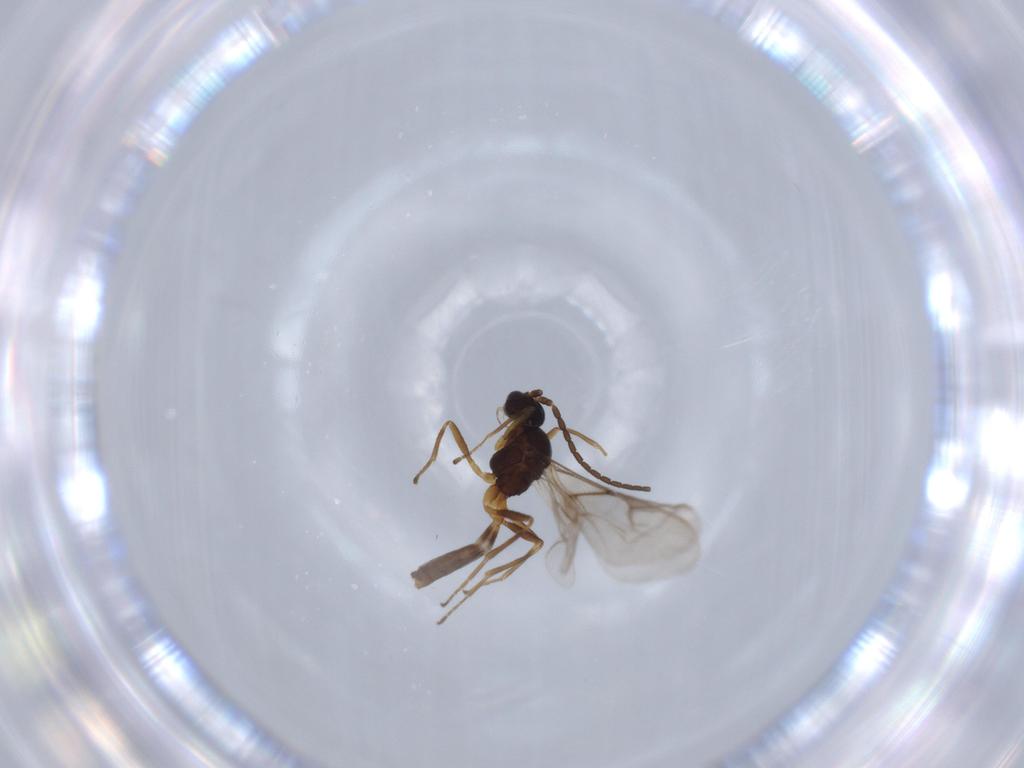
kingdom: Animalia
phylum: Arthropoda
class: Insecta
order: Hymenoptera
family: Braconidae
